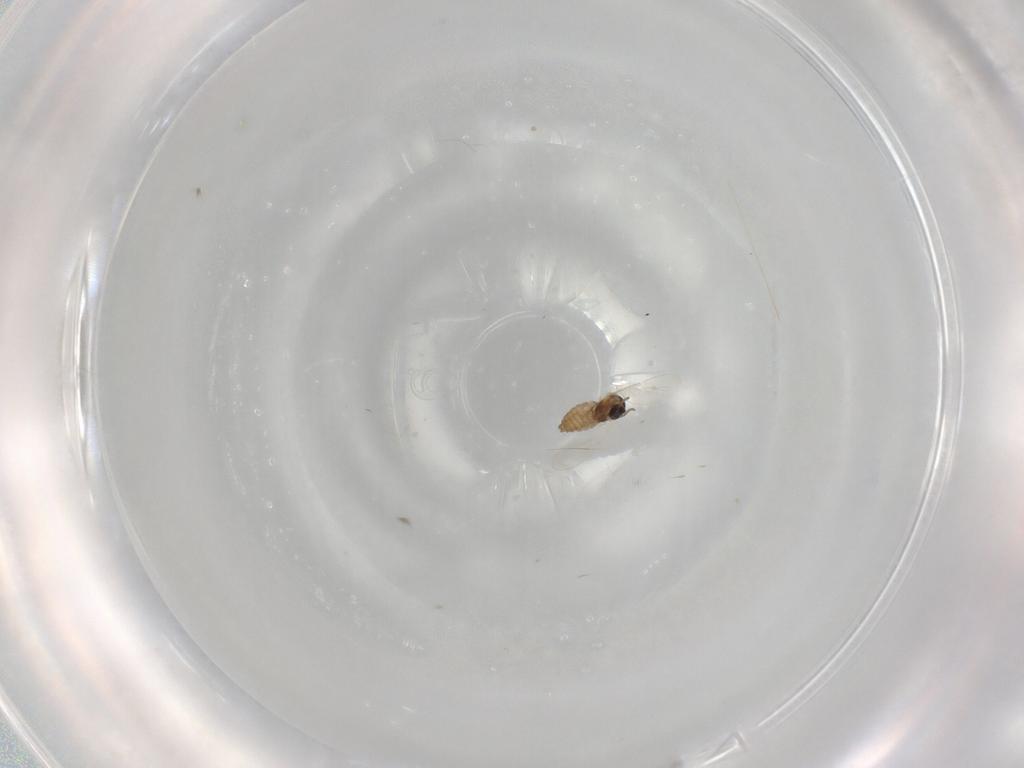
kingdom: Animalia
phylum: Arthropoda
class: Insecta
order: Diptera
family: Cecidomyiidae
